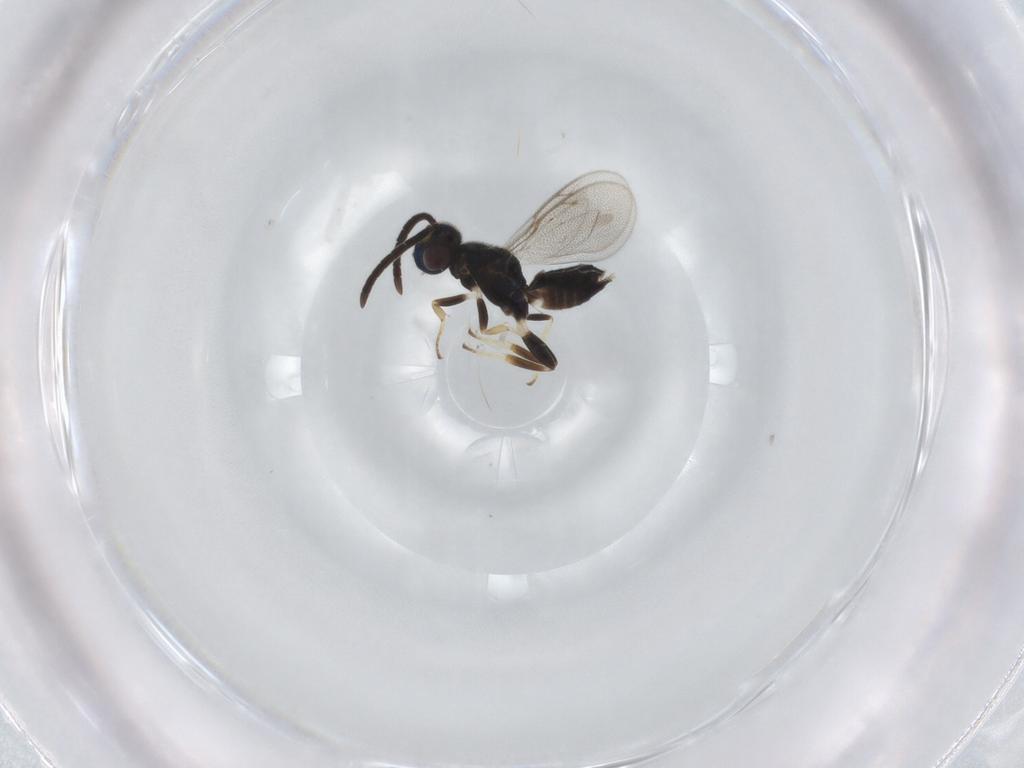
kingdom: Animalia
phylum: Arthropoda
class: Insecta
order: Hymenoptera
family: Eupelmidae
